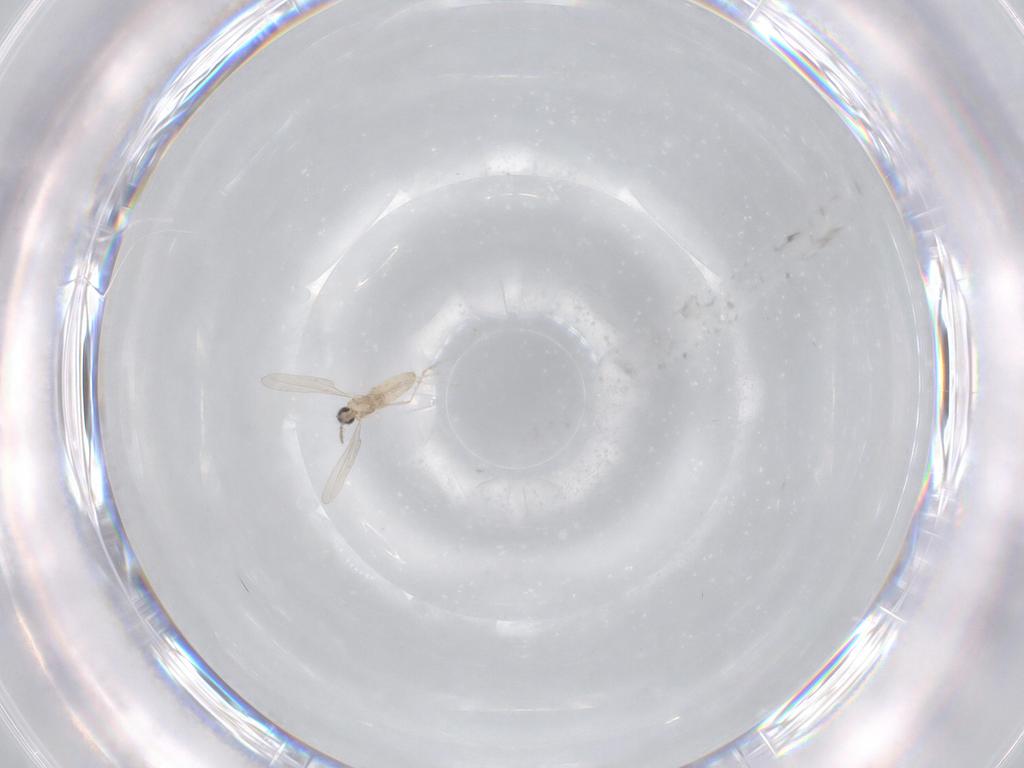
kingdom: Animalia
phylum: Arthropoda
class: Insecta
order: Diptera
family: Cecidomyiidae
